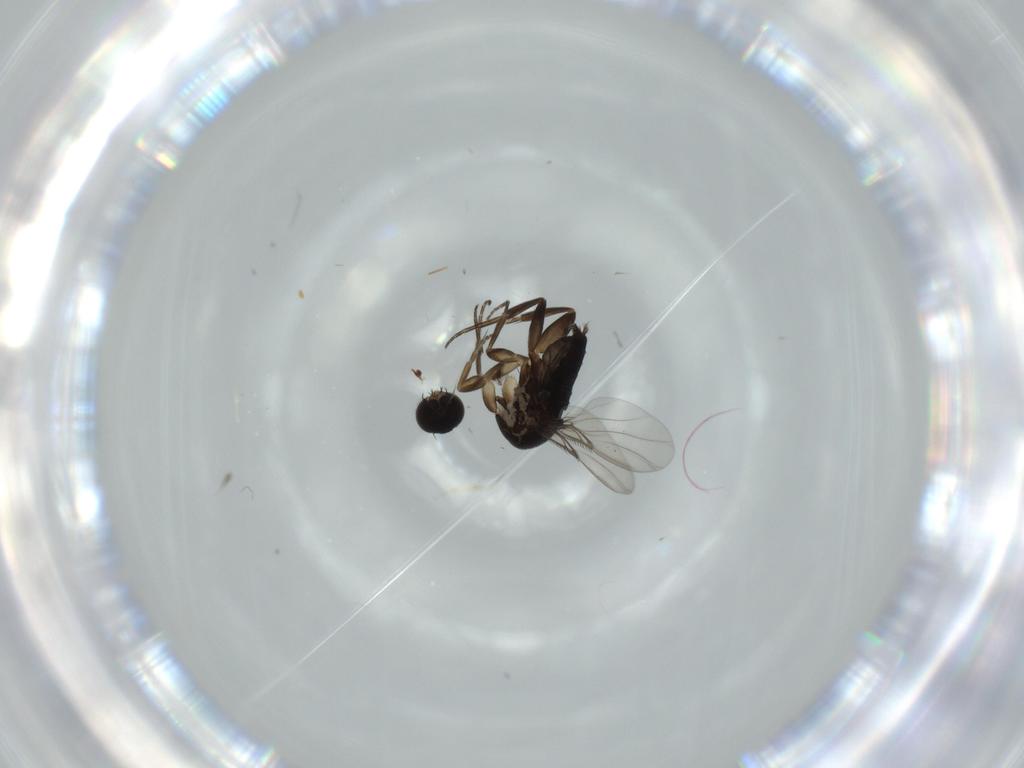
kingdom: Animalia
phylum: Arthropoda
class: Insecta
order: Diptera
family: Phoridae
